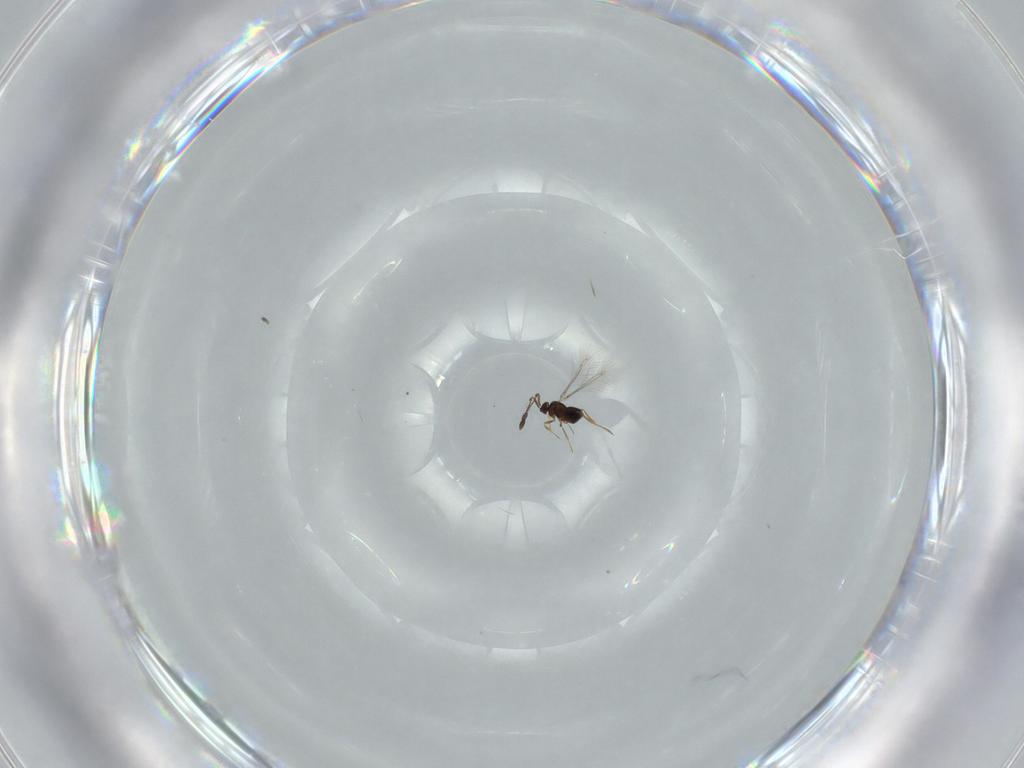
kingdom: Animalia
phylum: Arthropoda
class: Insecta
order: Hymenoptera
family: Mymaridae
